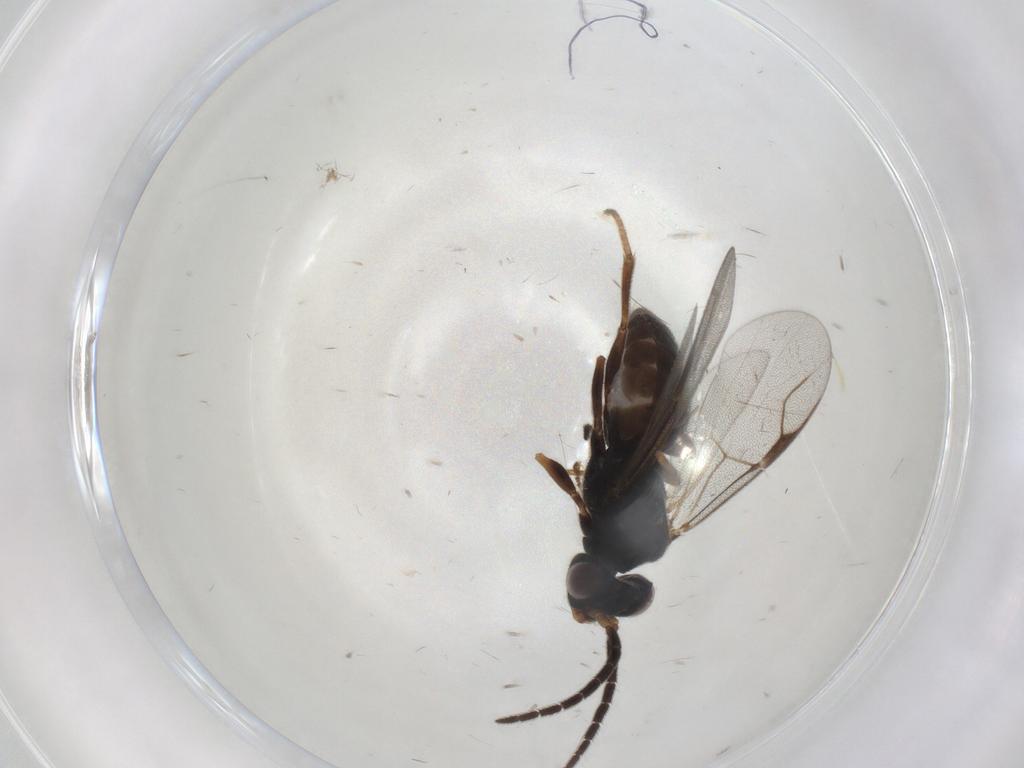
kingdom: Animalia
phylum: Arthropoda
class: Insecta
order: Hymenoptera
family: Dryinidae
